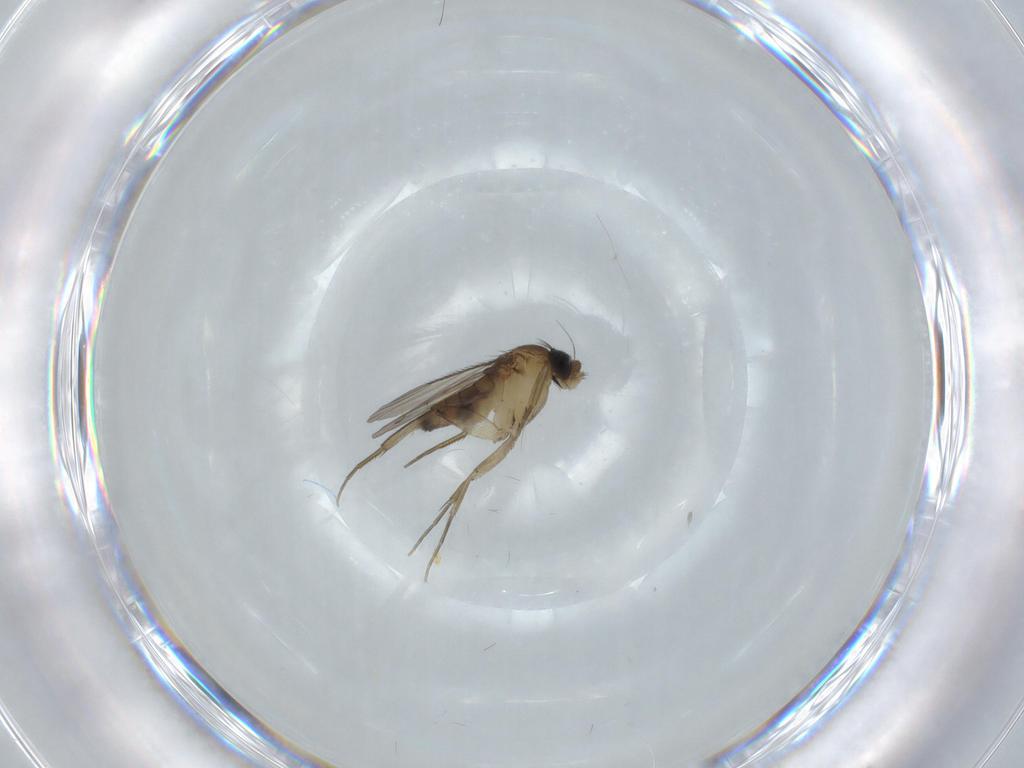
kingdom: Animalia
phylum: Arthropoda
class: Insecta
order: Diptera
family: Phoridae
